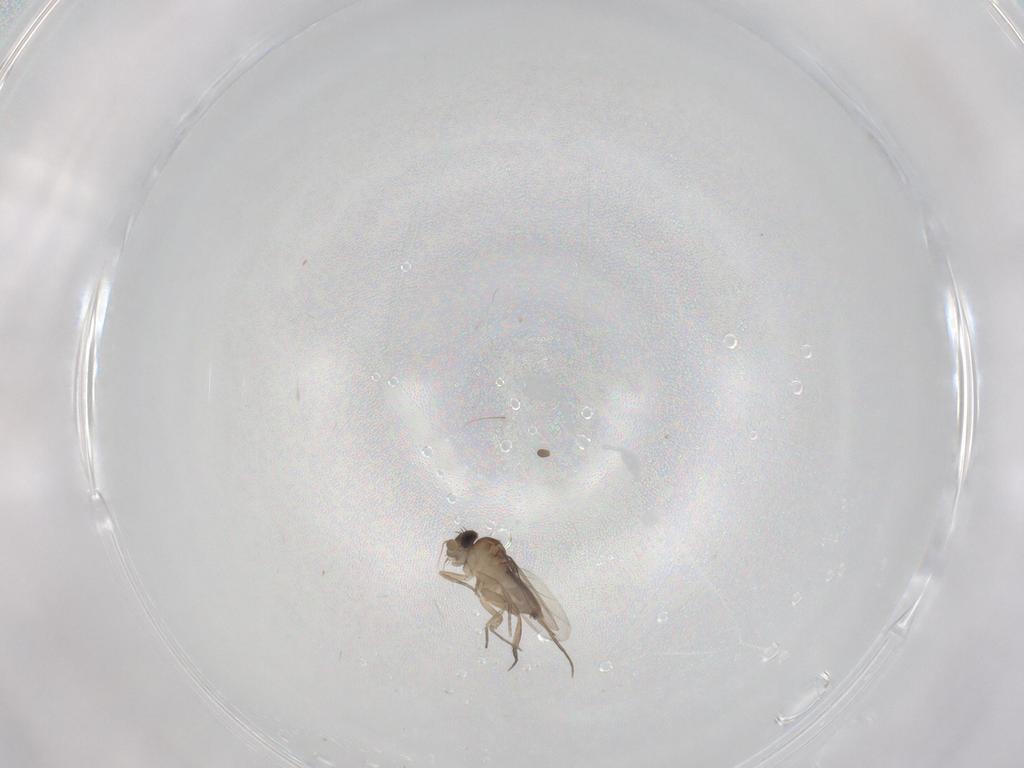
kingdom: Animalia
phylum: Arthropoda
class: Insecta
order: Diptera
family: Phoridae
